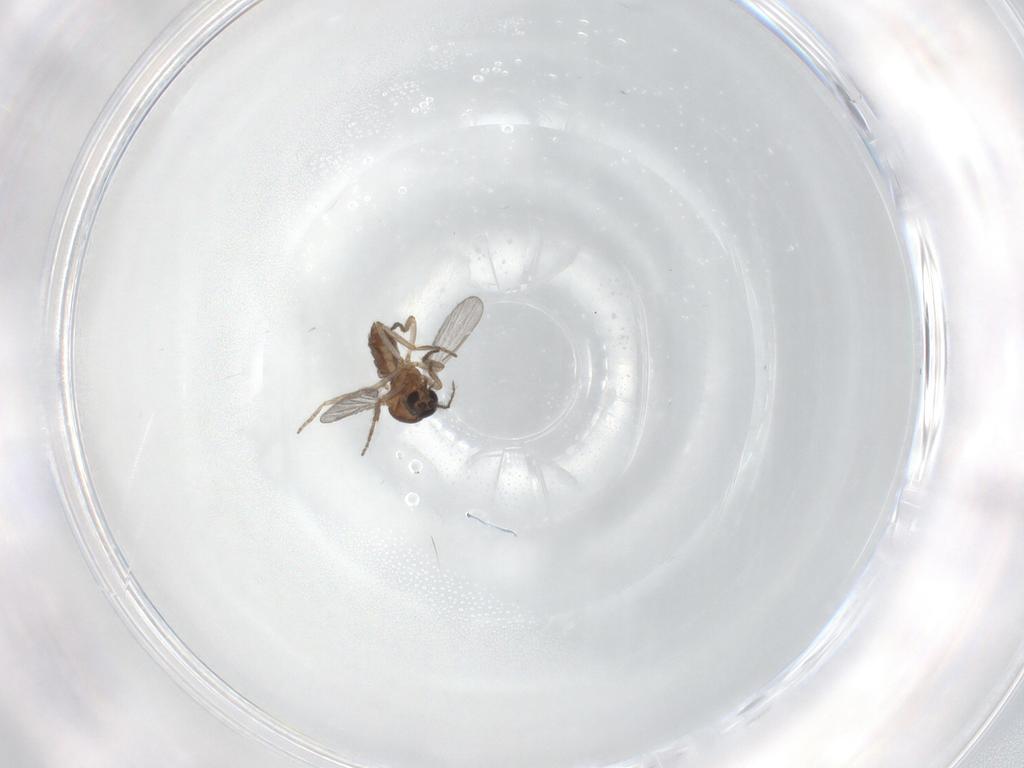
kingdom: Animalia
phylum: Arthropoda
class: Insecta
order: Diptera
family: Ceratopogonidae
